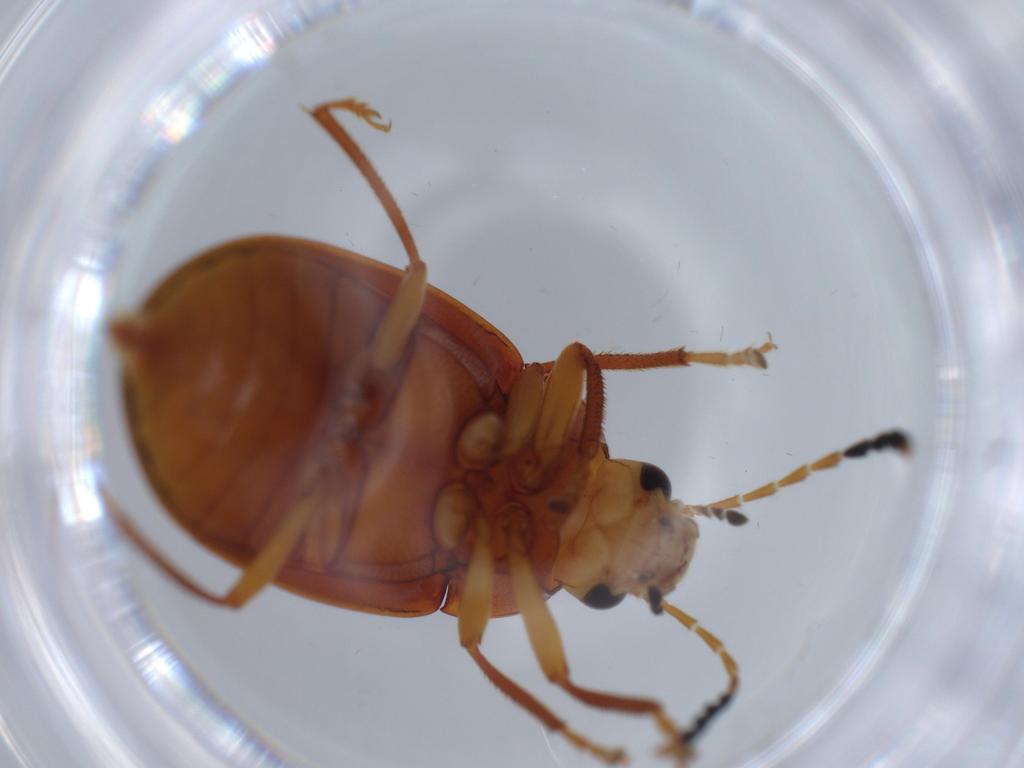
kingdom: Animalia
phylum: Arthropoda
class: Insecta
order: Coleoptera
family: Ptilodactylidae
